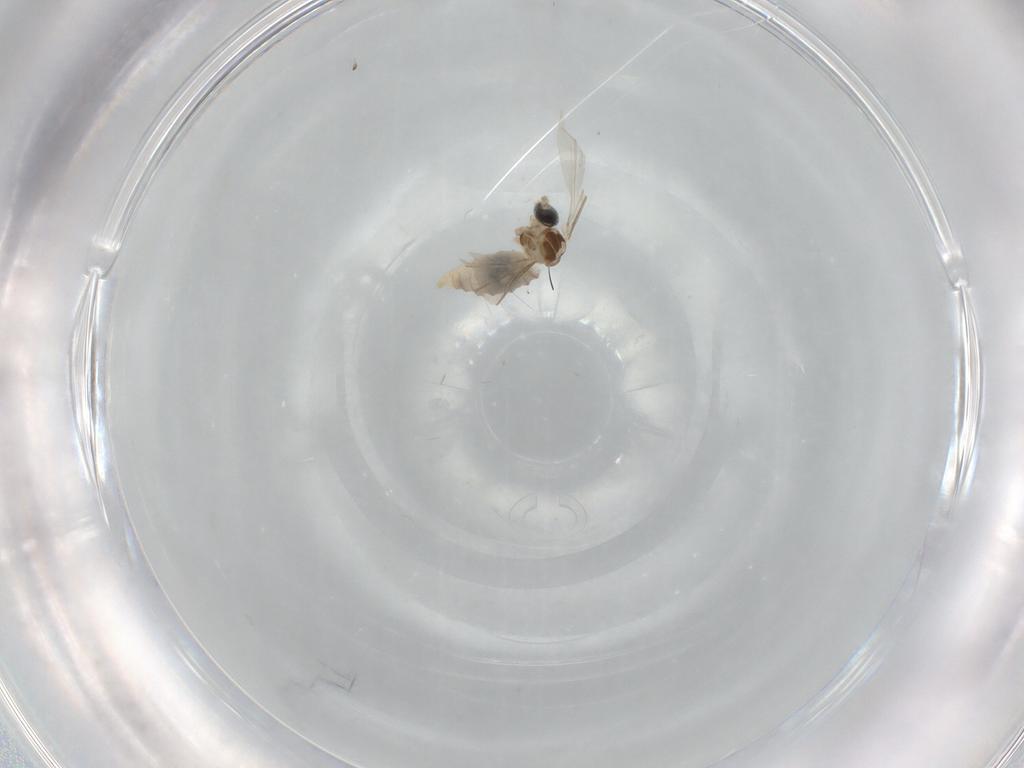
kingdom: Animalia
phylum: Arthropoda
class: Insecta
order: Diptera
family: Cecidomyiidae
